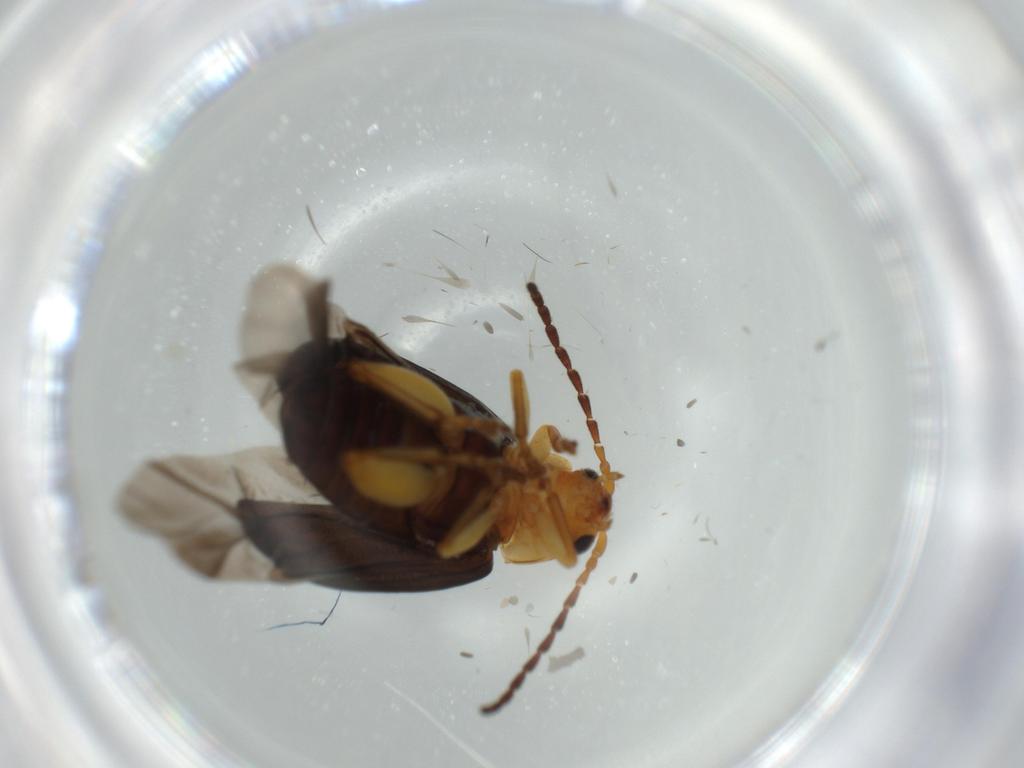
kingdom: Animalia
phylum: Arthropoda
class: Insecta
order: Coleoptera
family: Chrysomelidae
